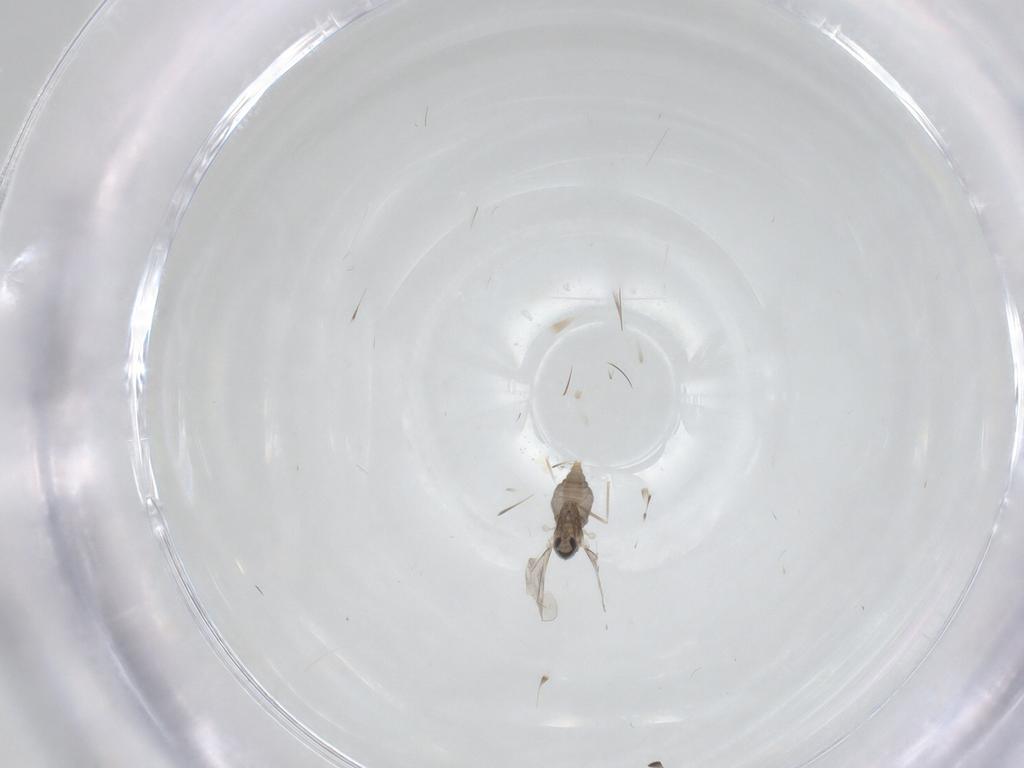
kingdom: Animalia
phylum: Arthropoda
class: Insecta
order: Diptera
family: Cecidomyiidae
